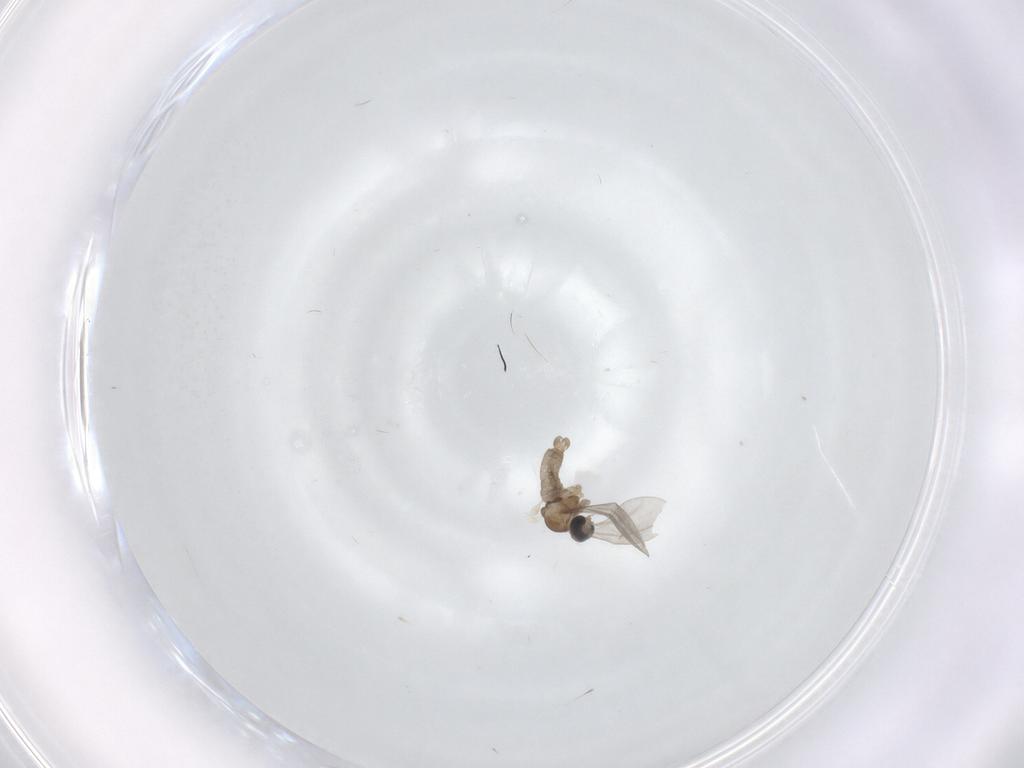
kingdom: Animalia
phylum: Arthropoda
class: Insecta
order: Diptera
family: Cecidomyiidae
